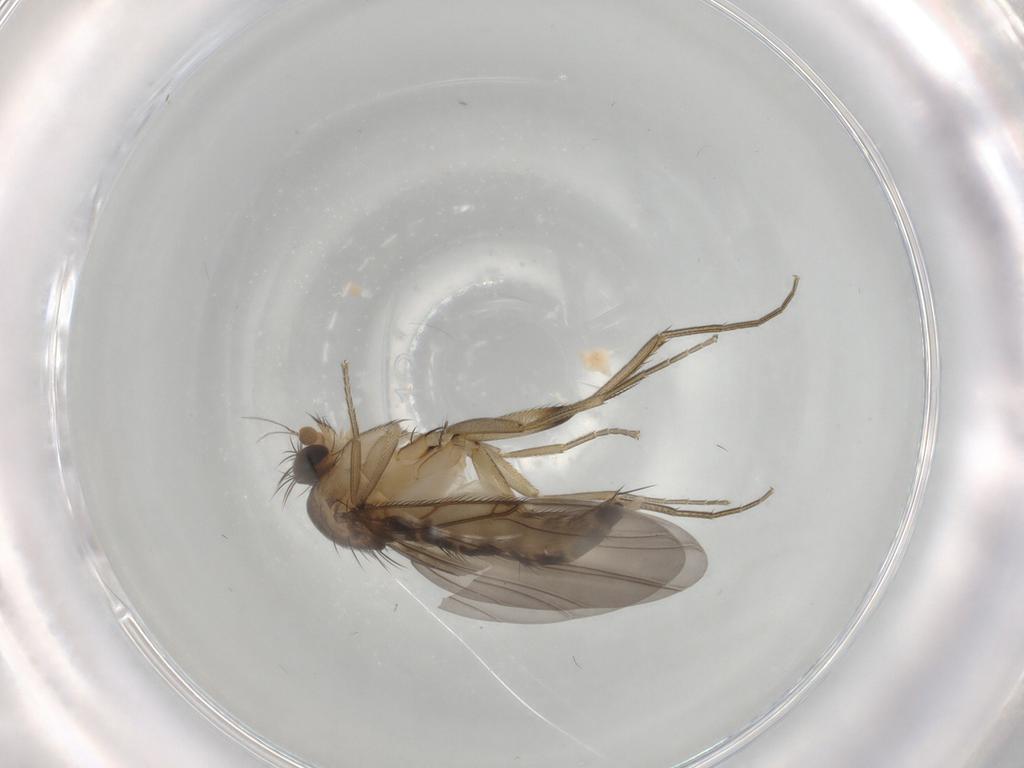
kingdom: Animalia
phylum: Arthropoda
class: Insecta
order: Diptera
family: Phoridae
